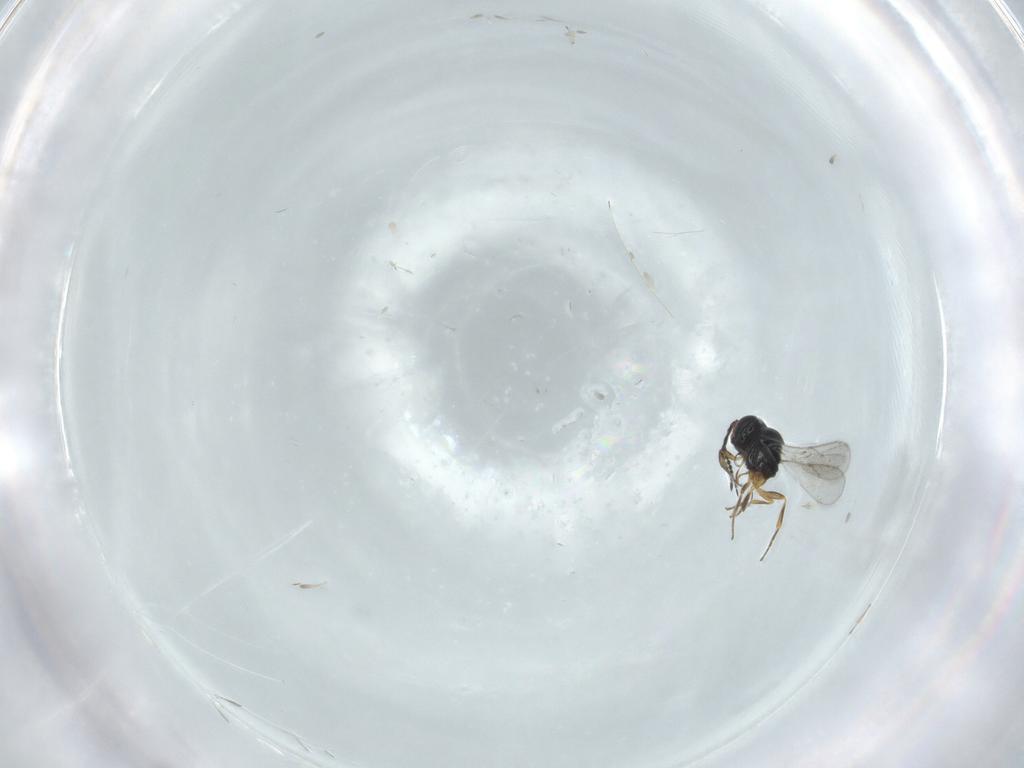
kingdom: Animalia
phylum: Arthropoda
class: Insecta
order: Hymenoptera
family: Scelionidae
